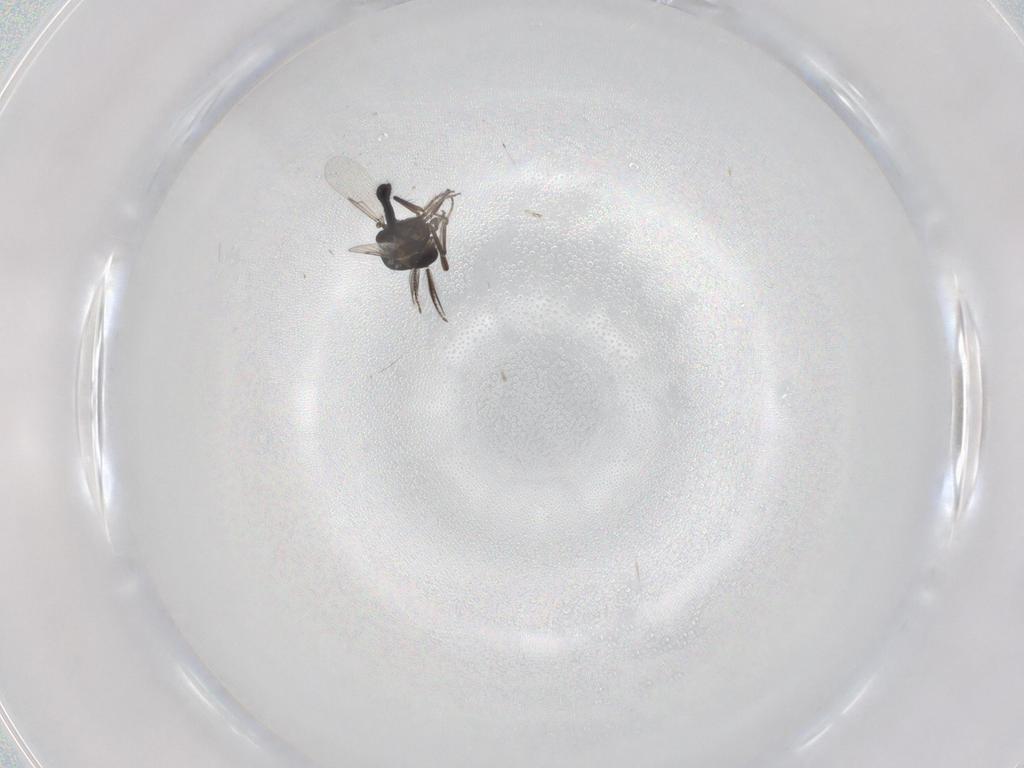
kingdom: Animalia
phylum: Arthropoda
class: Insecta
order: Diptera
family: Ceratopogonidae
